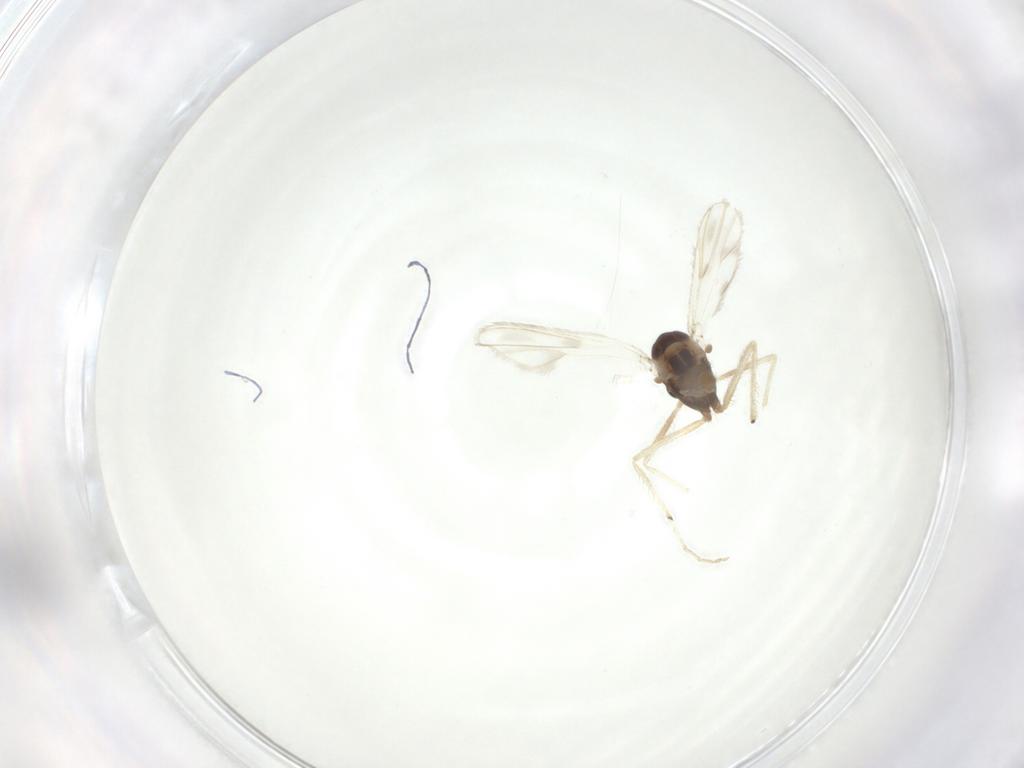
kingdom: Animalia
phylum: Arthropoda
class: Insecta
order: Diptera
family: Chironomidae
